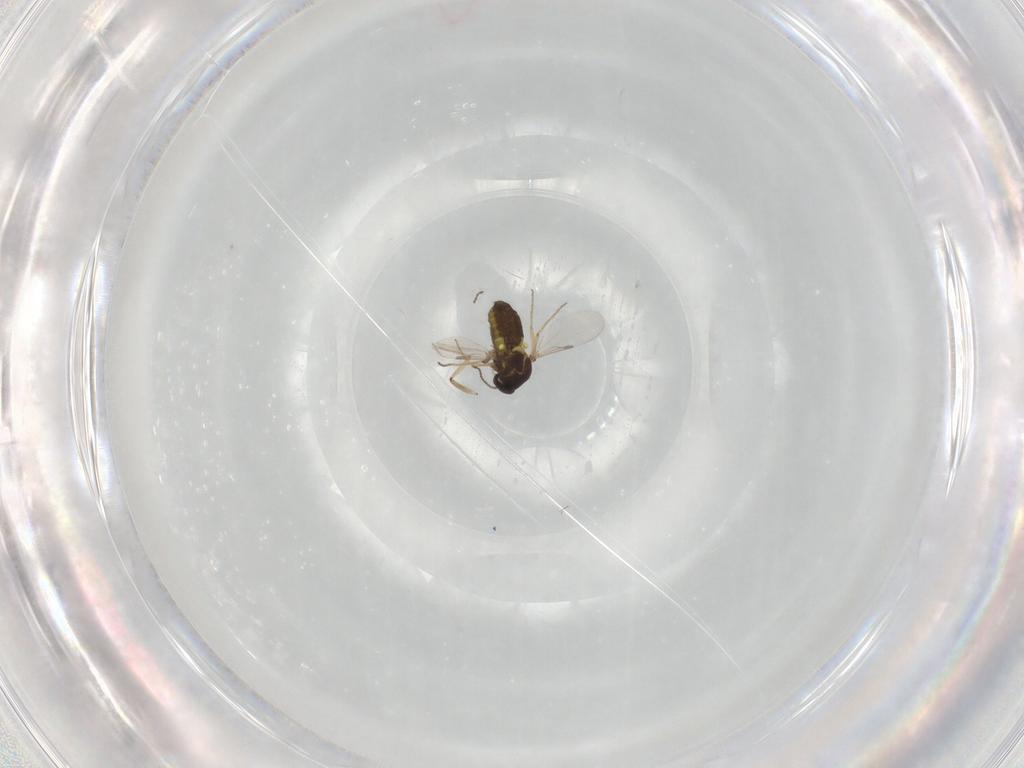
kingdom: Animalia
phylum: Arthropoda
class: Insecta
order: Diptera
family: Ceratopogonidae
